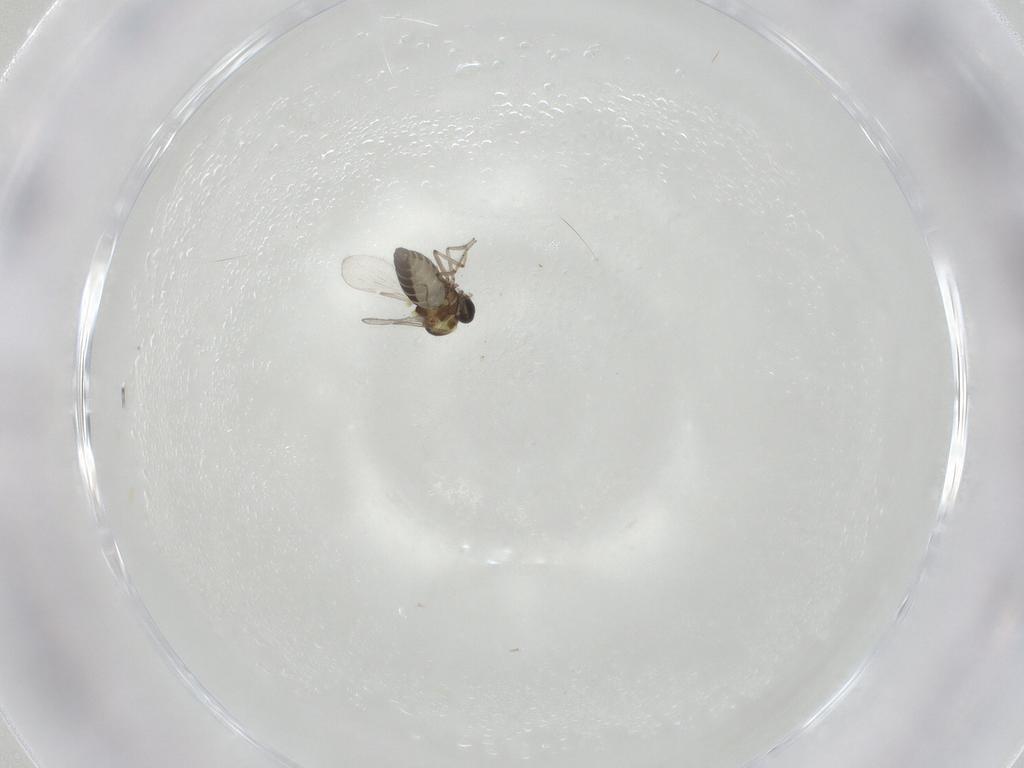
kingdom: Animalia
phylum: Arthropoda
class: Insecta
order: Diptera
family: Ceratopogonidae
